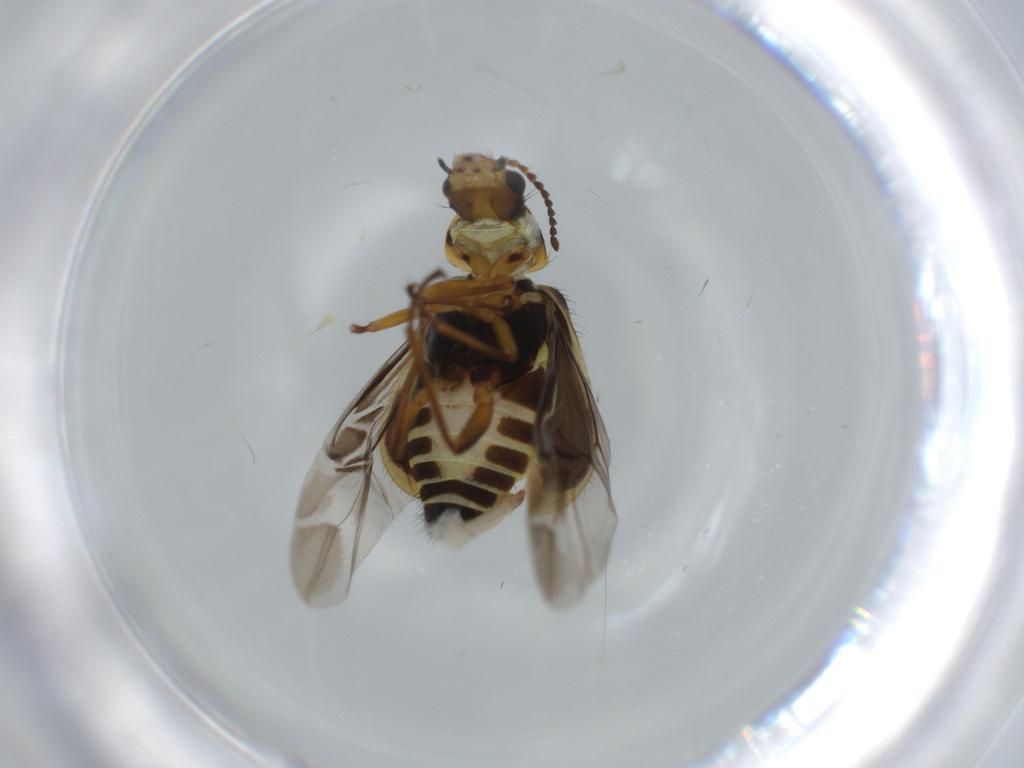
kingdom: Animalia
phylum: Arthropoda
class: Insecta
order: Coleoptera
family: Melyridae
